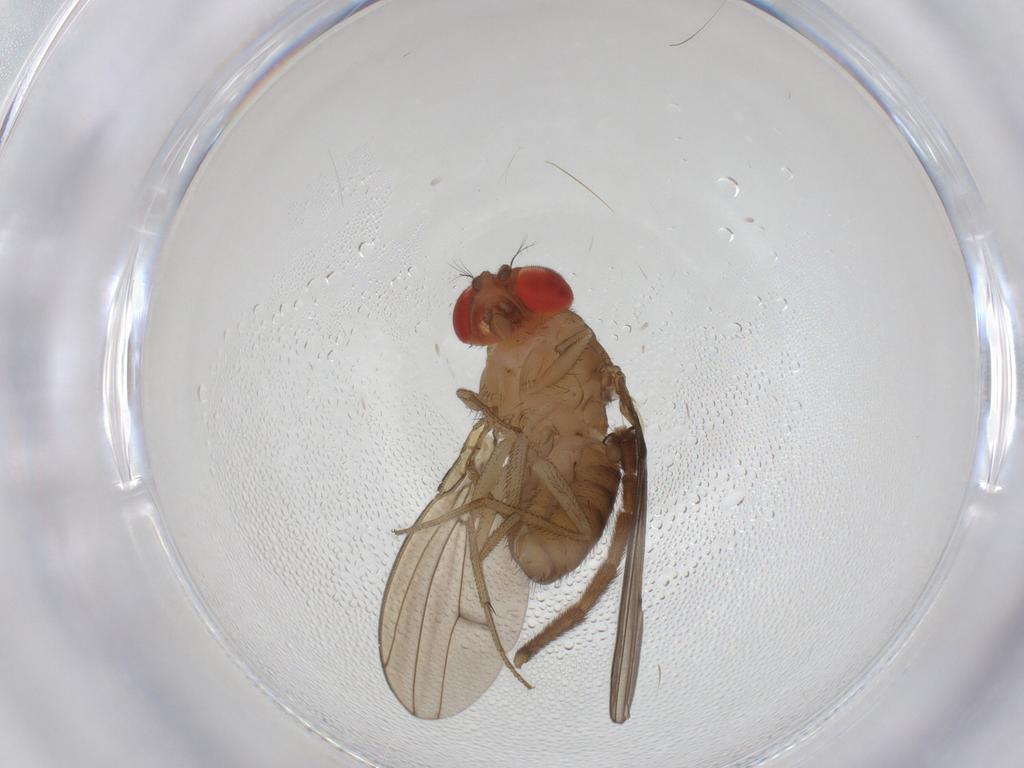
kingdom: Animalia
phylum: Arthropoda
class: Insecta
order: Diptera
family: Drosophilidae
